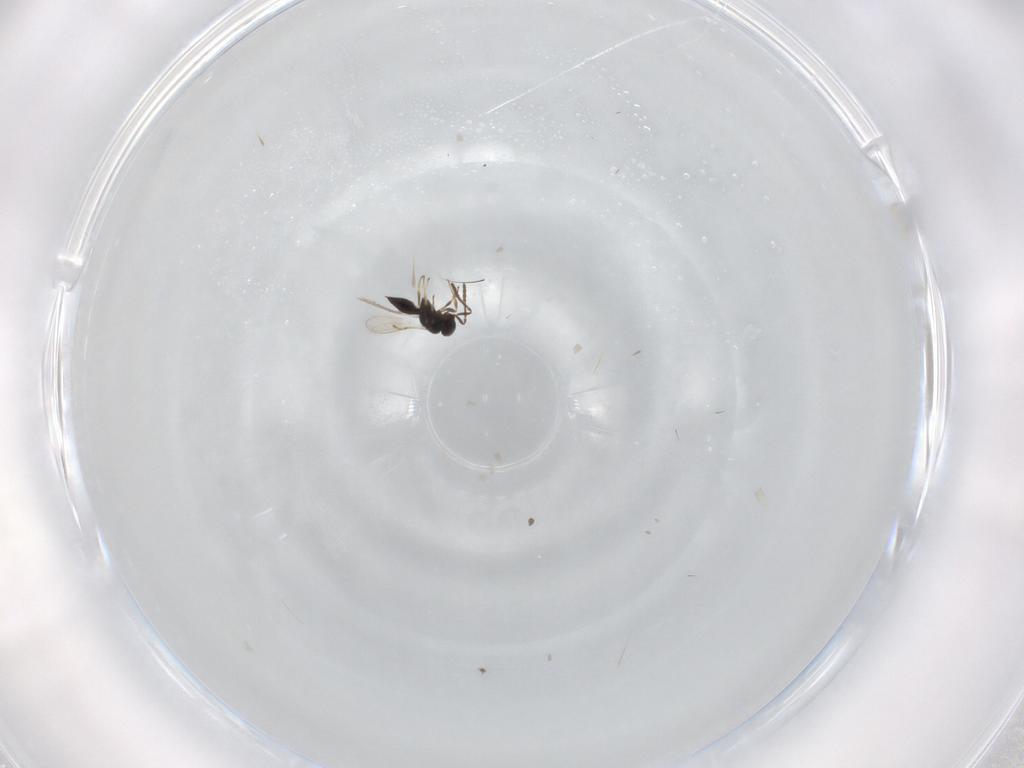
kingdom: Animalia
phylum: Arthropoda
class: Insecta
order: Hymenoptera
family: Scelionidae
